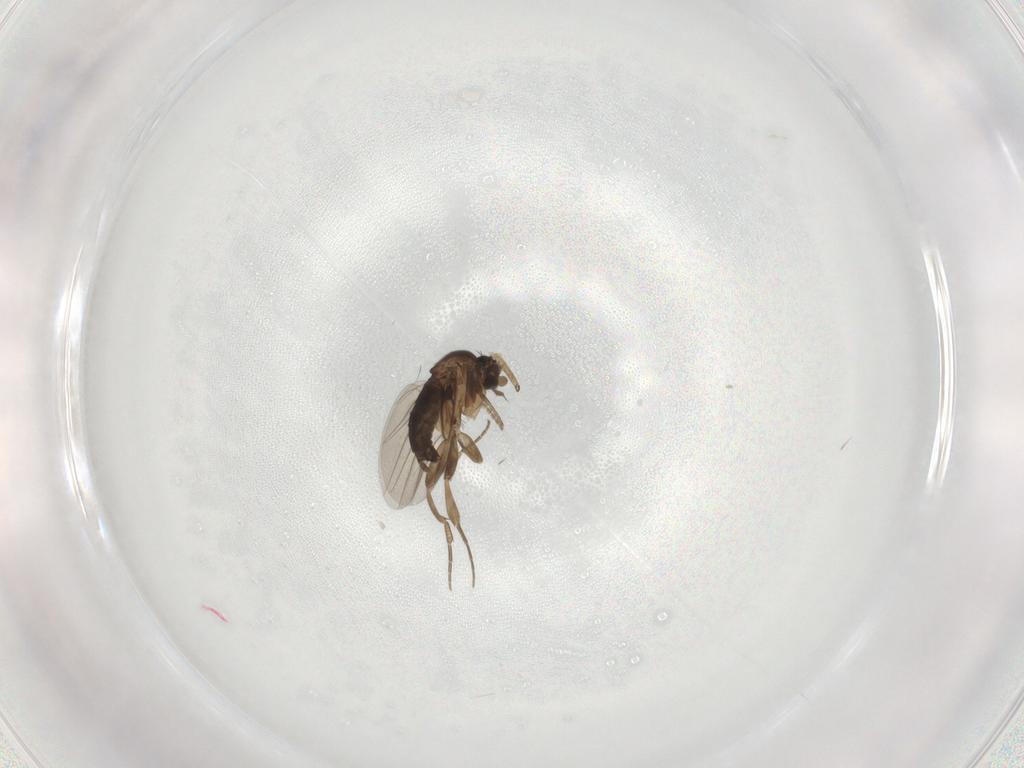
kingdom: Animalia
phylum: Arthropoda
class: Insecta
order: Diptera
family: Phoridae
